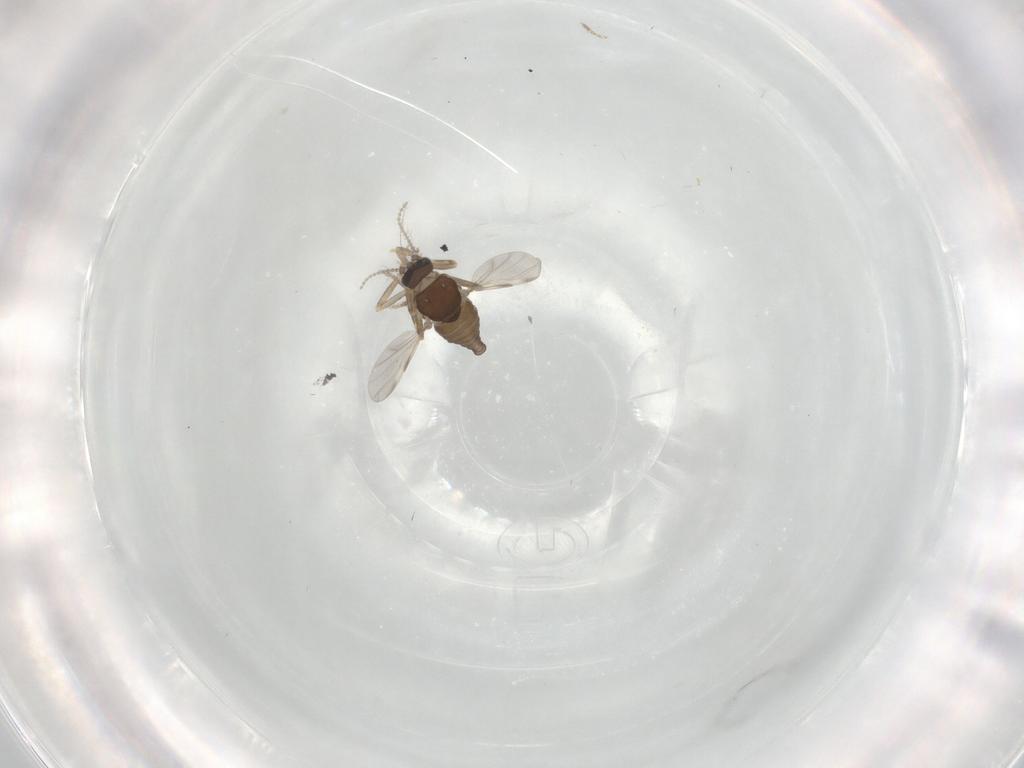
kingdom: Animalia
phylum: Arthropoda
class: Insecta
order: Diptera
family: Ceratopogonidae
